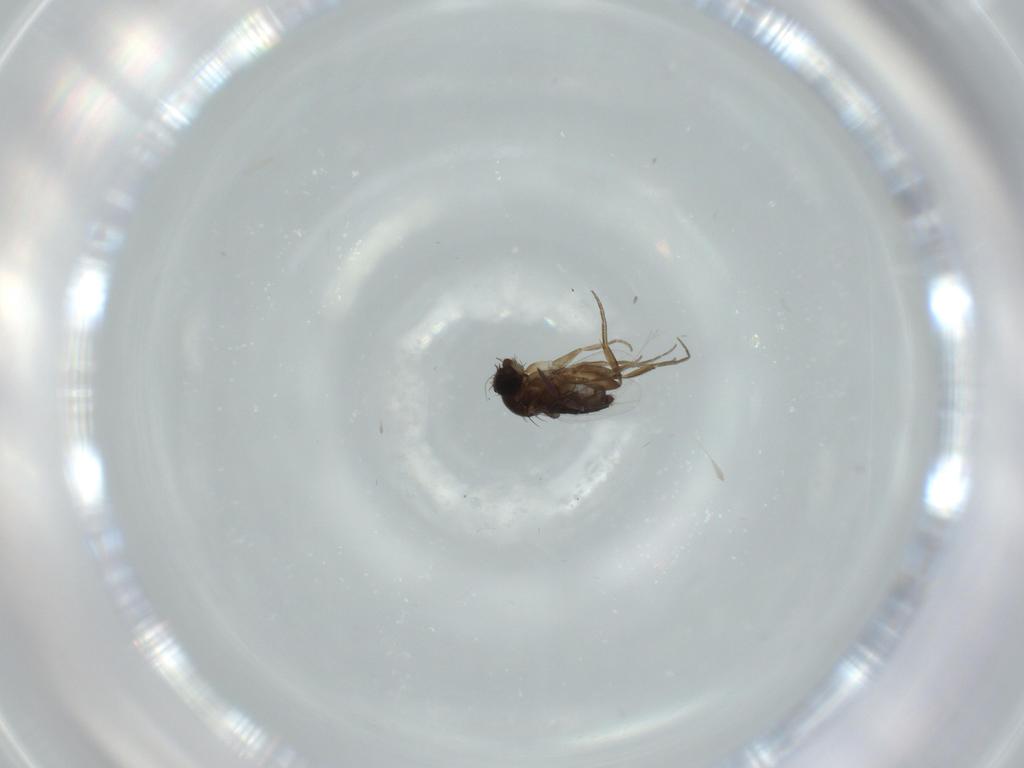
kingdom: Animalia
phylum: Arthropoda
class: Insecta
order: Diptera
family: Phoridae
